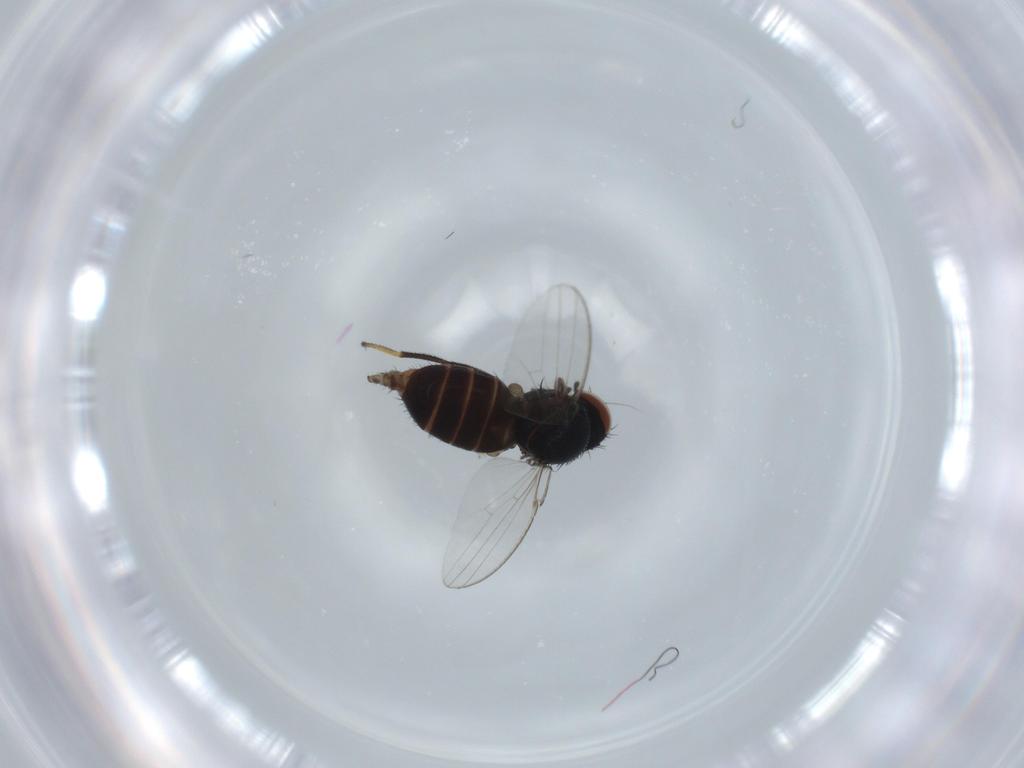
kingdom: Animalia
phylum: Arthropoda
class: Insecta
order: Diptera
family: Milichiidae
